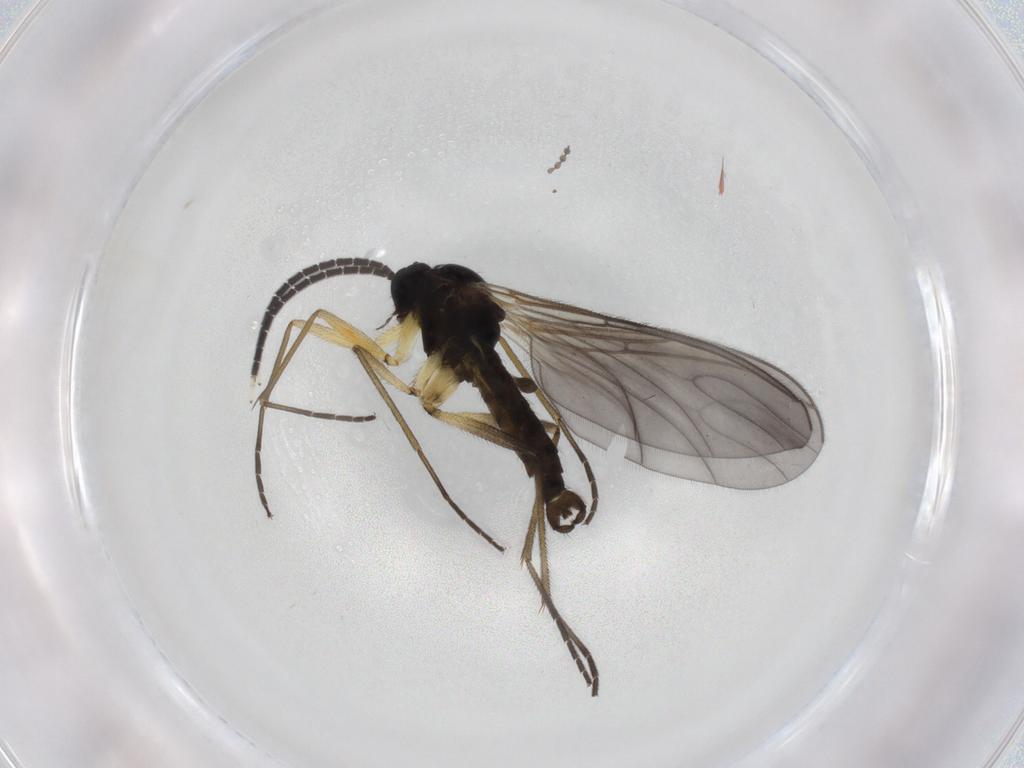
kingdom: Animalia
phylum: Arthropoda
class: Insecta
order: Diptera
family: Sciaridae
